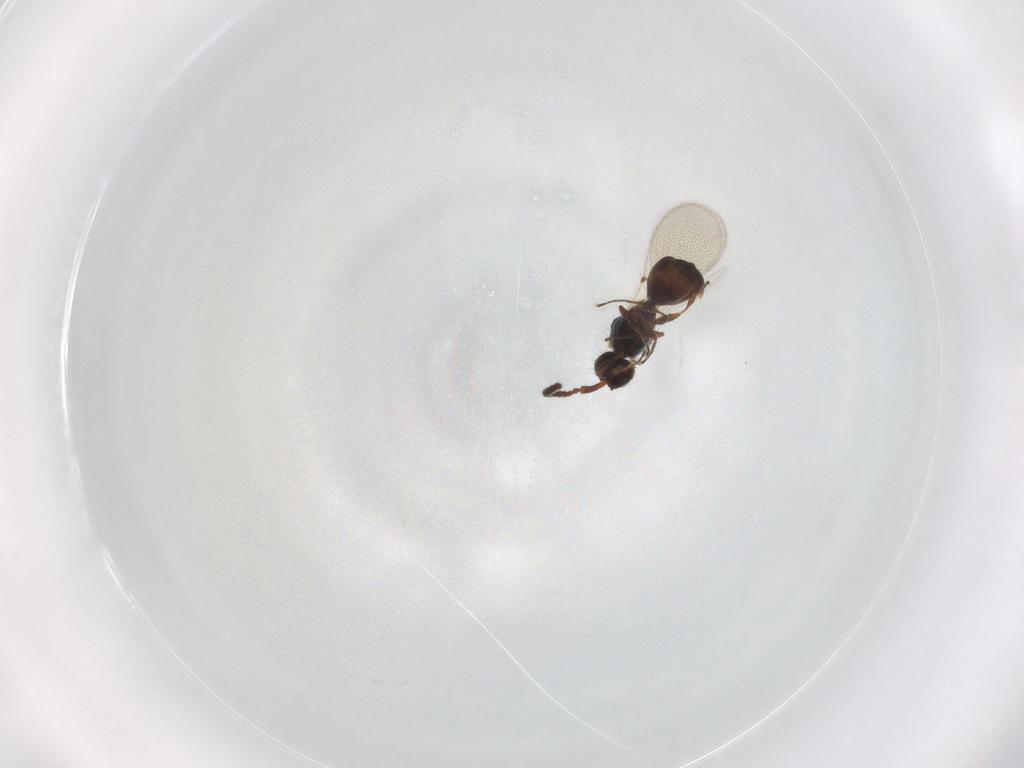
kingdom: Animalia
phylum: Arthropoda
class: Insecta
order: Hymenoptera
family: Diapriidae
